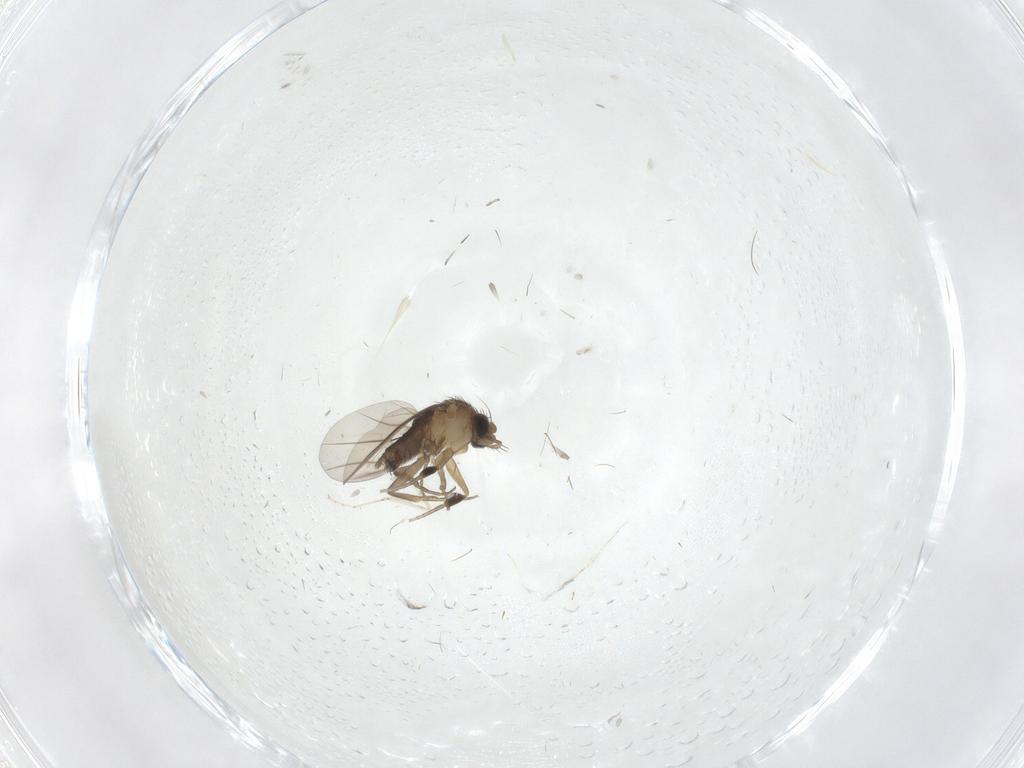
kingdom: Animalia
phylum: Arthropoda
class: Insecta
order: Diptera
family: Phoridae
